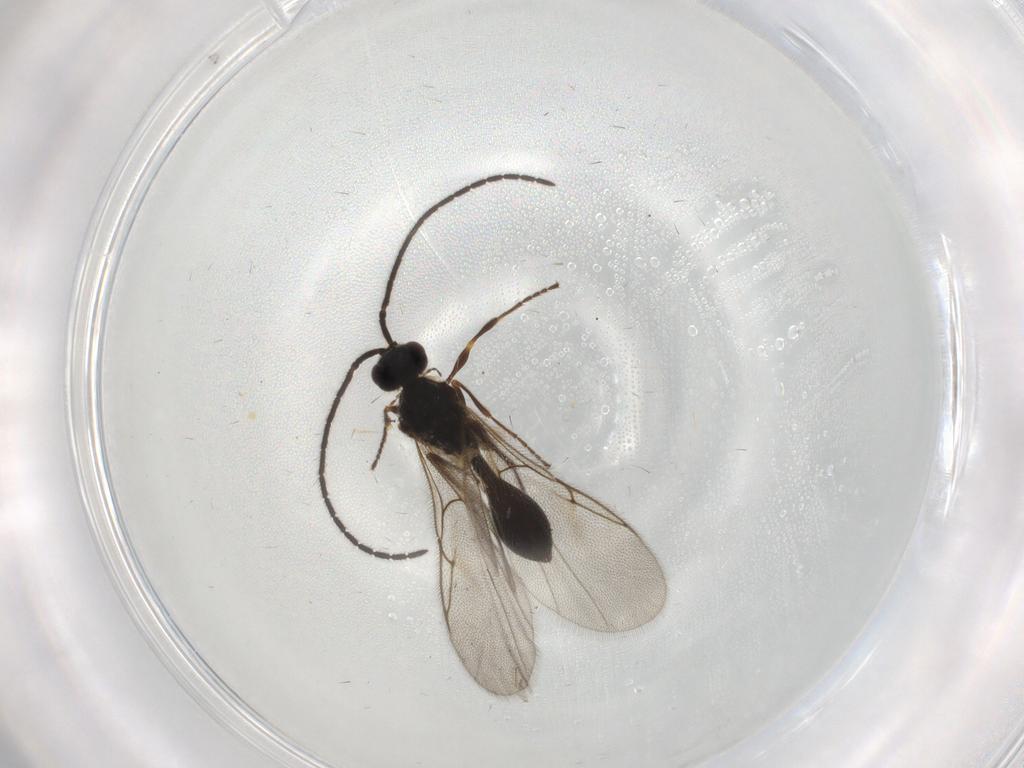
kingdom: Animalia
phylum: Arthropoda
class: Insecta
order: Hymenoptera
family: Diapriidae
